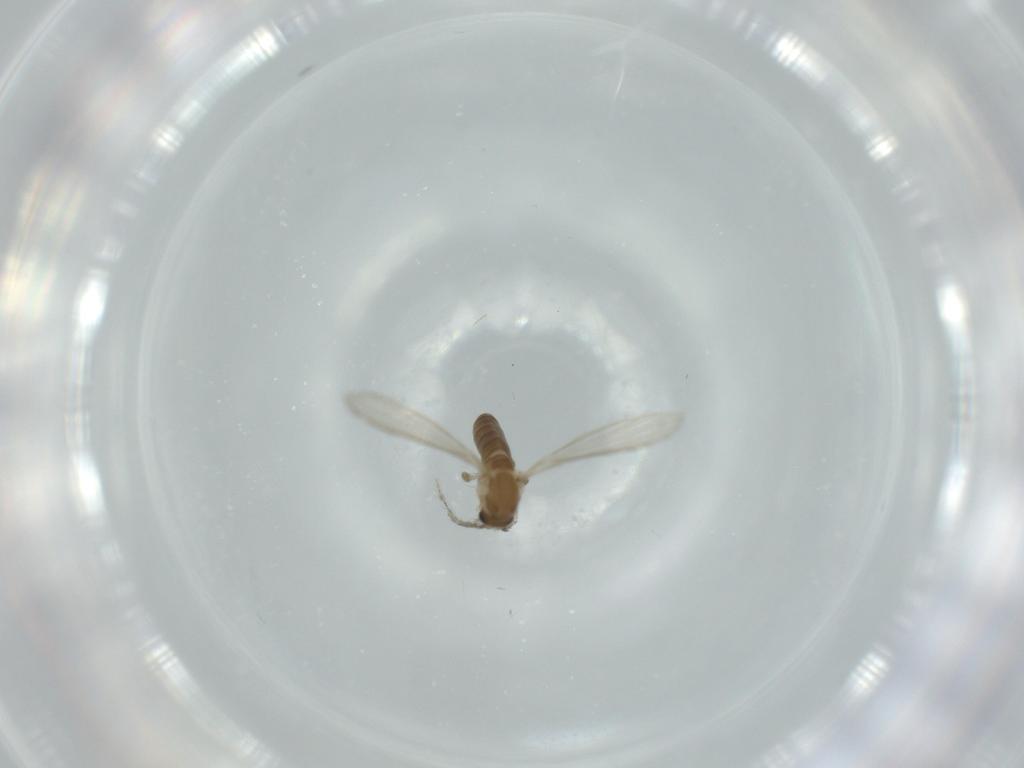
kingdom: Animalia
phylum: Arthropoda
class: Insecta
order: Diptera
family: Psychodidae
